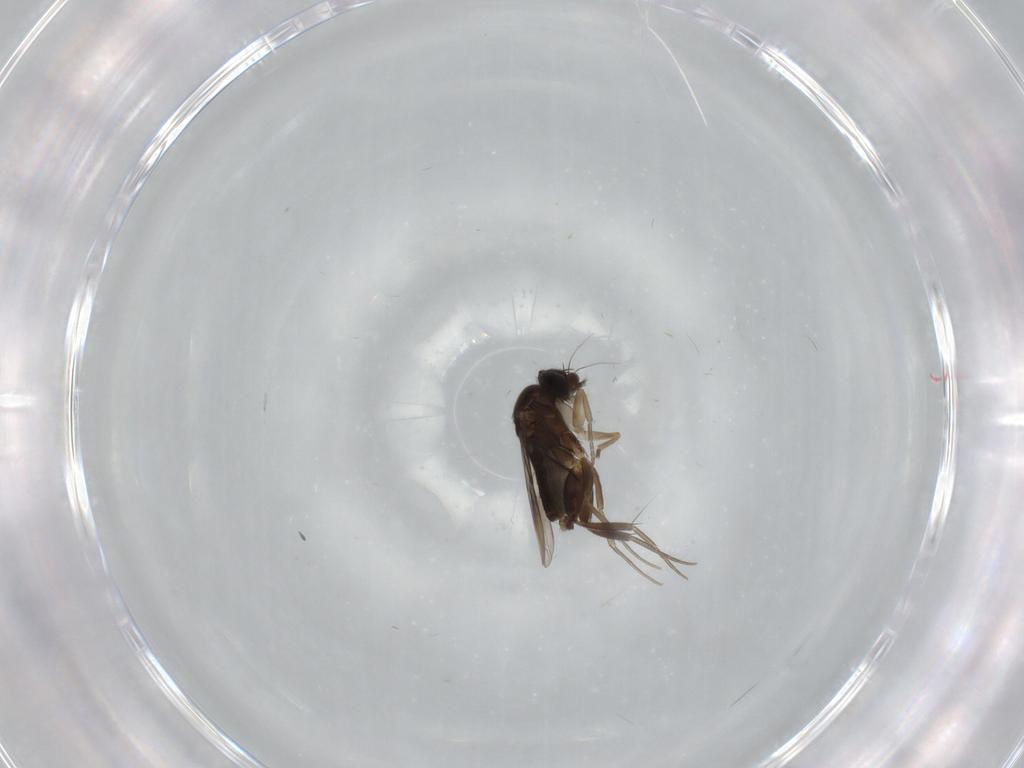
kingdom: Animalia
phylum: Arthropoda
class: Insecta
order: Diptera
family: Phoridae
